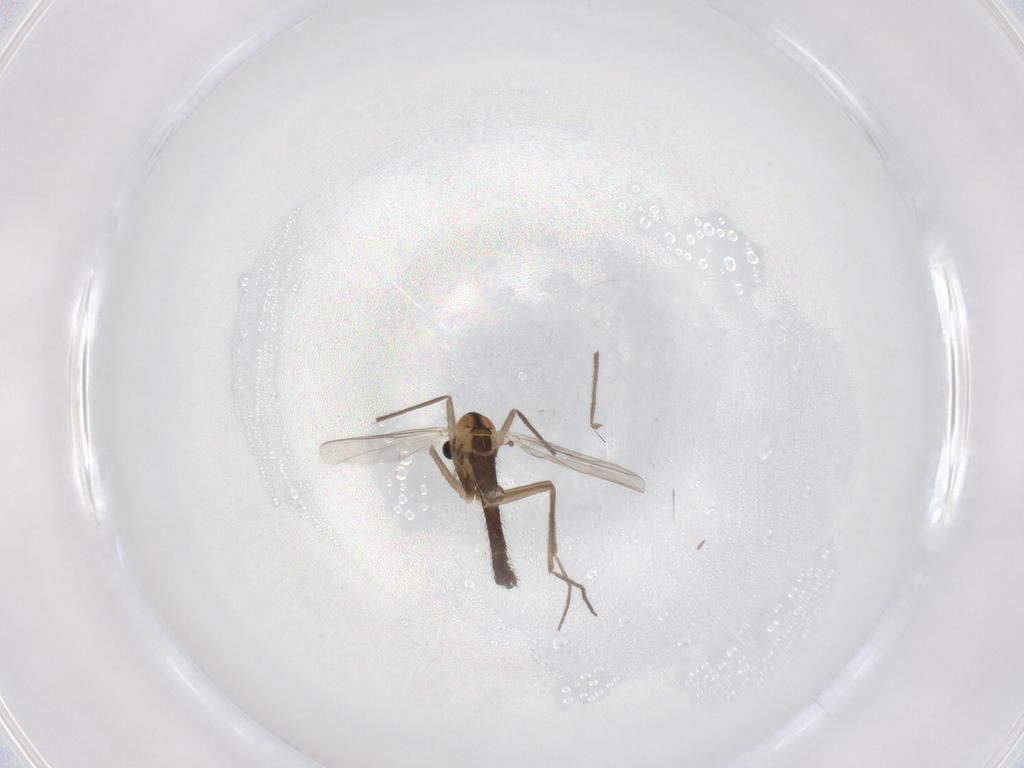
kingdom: Animalia
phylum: Arthropoda
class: Insecta
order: Diptera
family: Chironomidae
